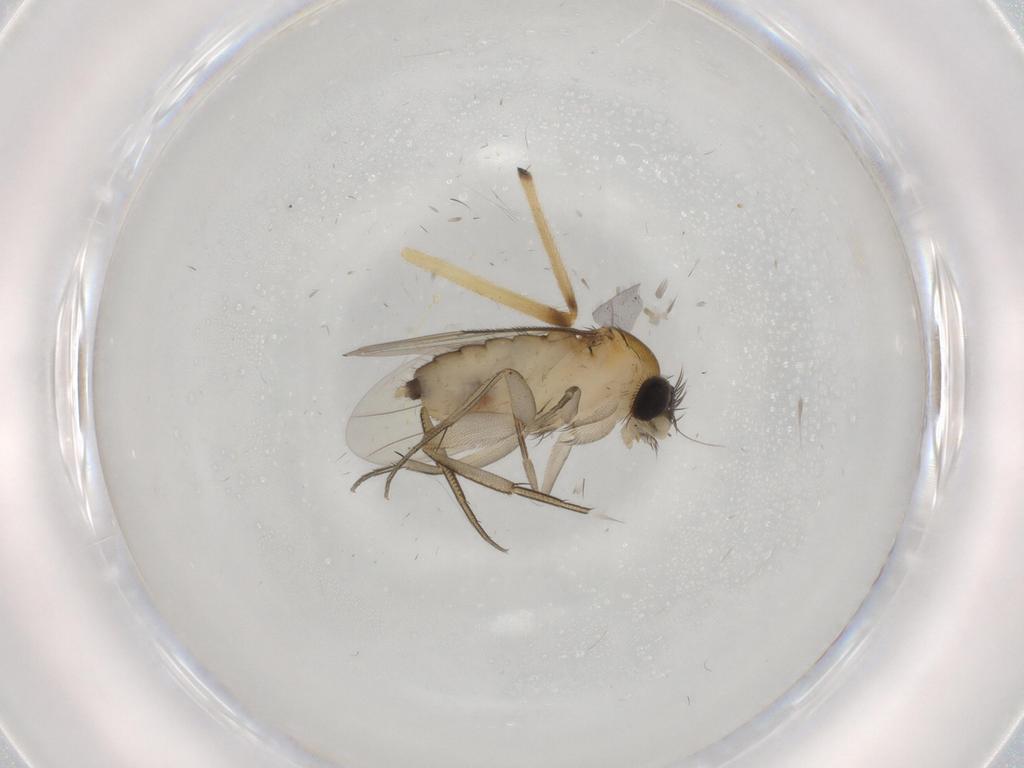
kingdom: Animalia
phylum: Arthropoda
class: Insecta
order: Diptera
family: Phoridae
